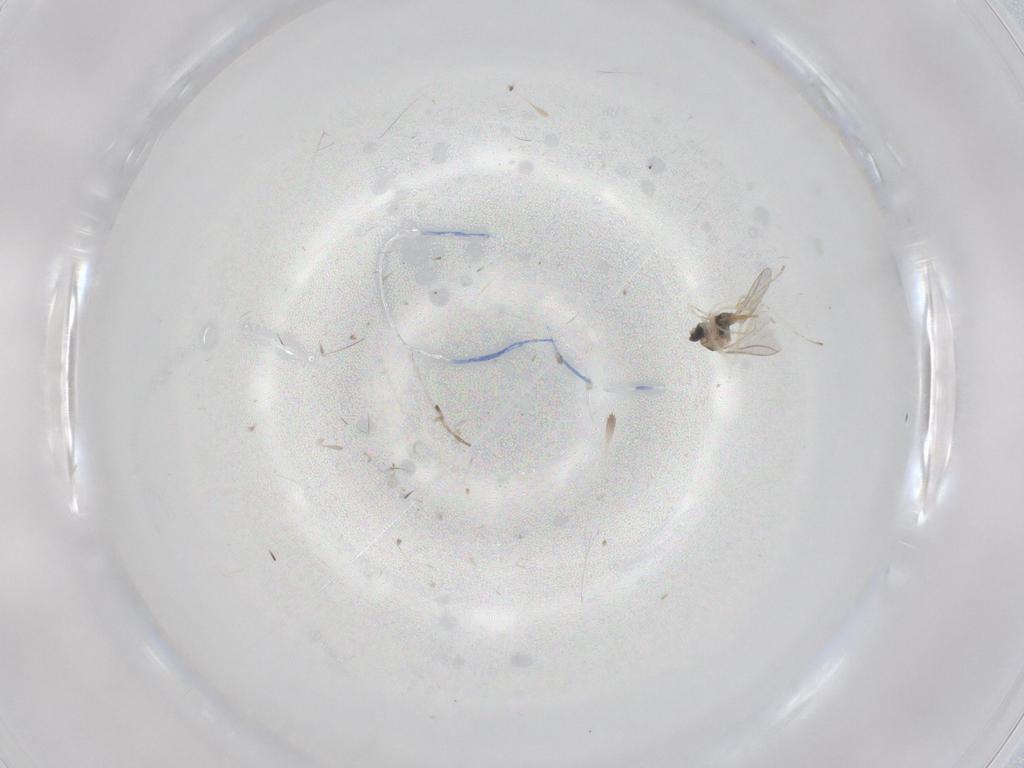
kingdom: Animalia
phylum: Arthropoda
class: Insecta
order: Diptera
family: Cecidomyiidae
